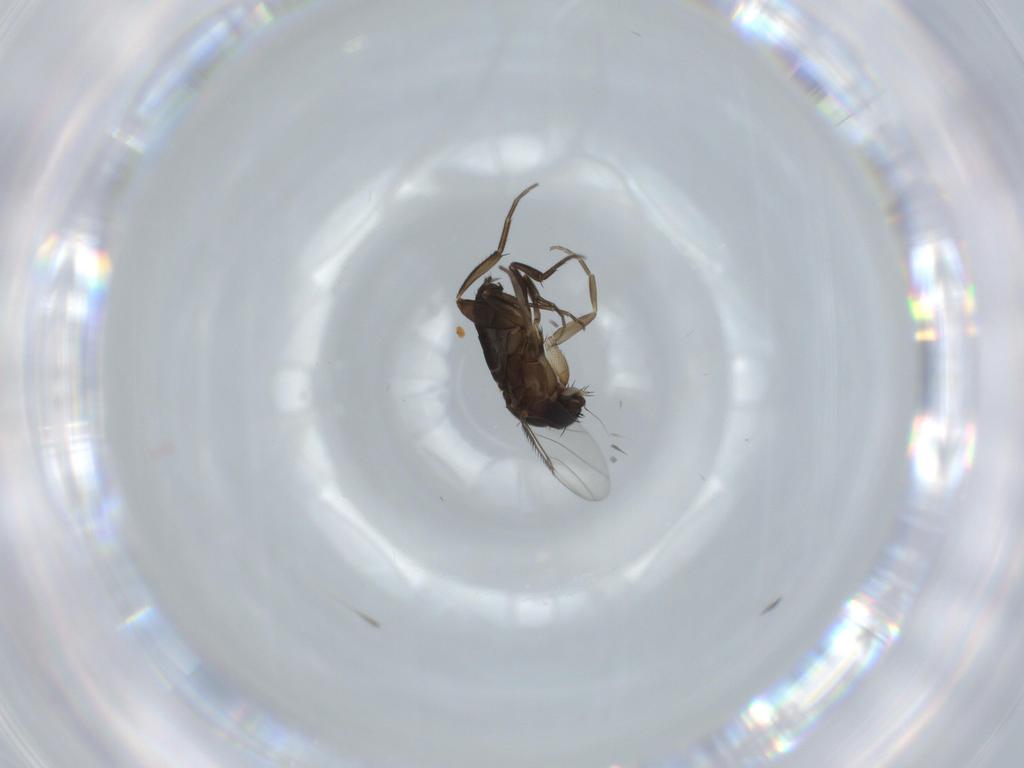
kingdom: Animalia
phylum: Arthropoda
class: Insecta
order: Diptera
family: Phoridae
